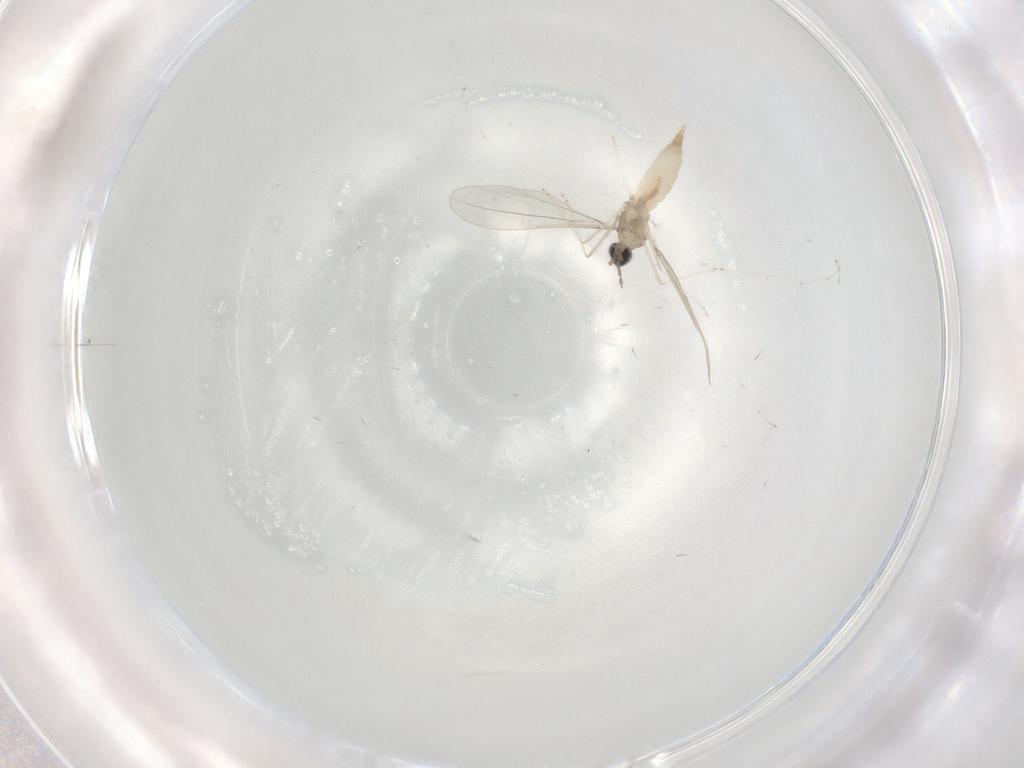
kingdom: Animalia
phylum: Arthropoda
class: Insecta
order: Diptera
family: Cecidomyiidae
